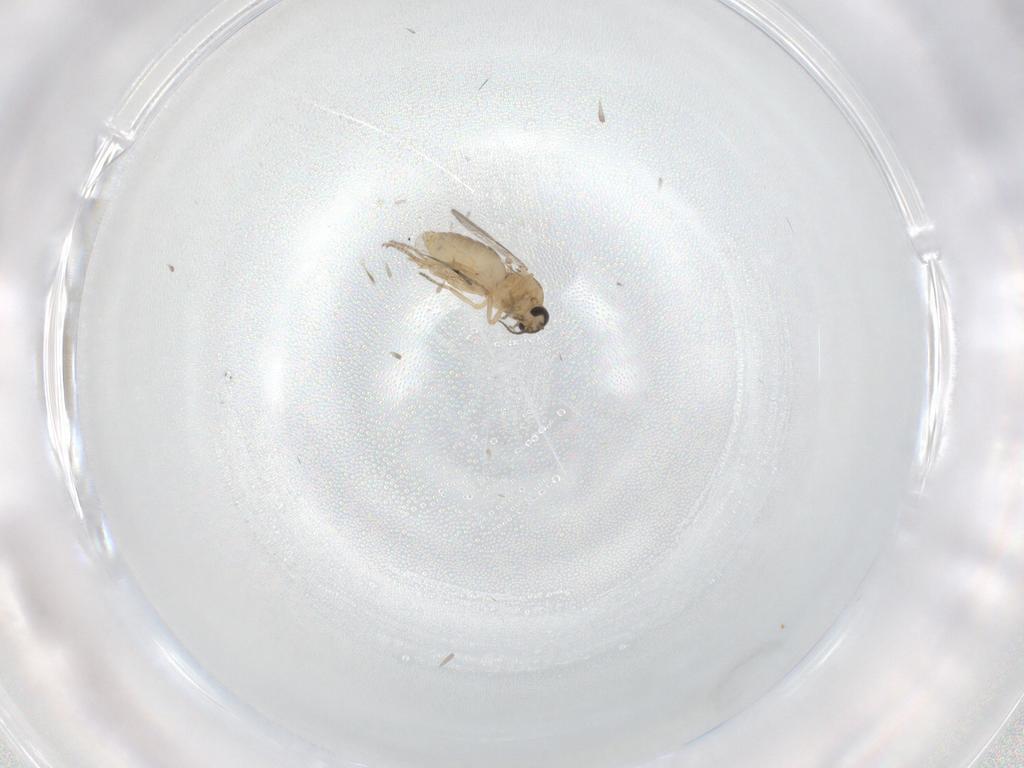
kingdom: Animalia
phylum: Arthropoda
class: Insecta
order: Diptera
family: Ceratopogonidae
